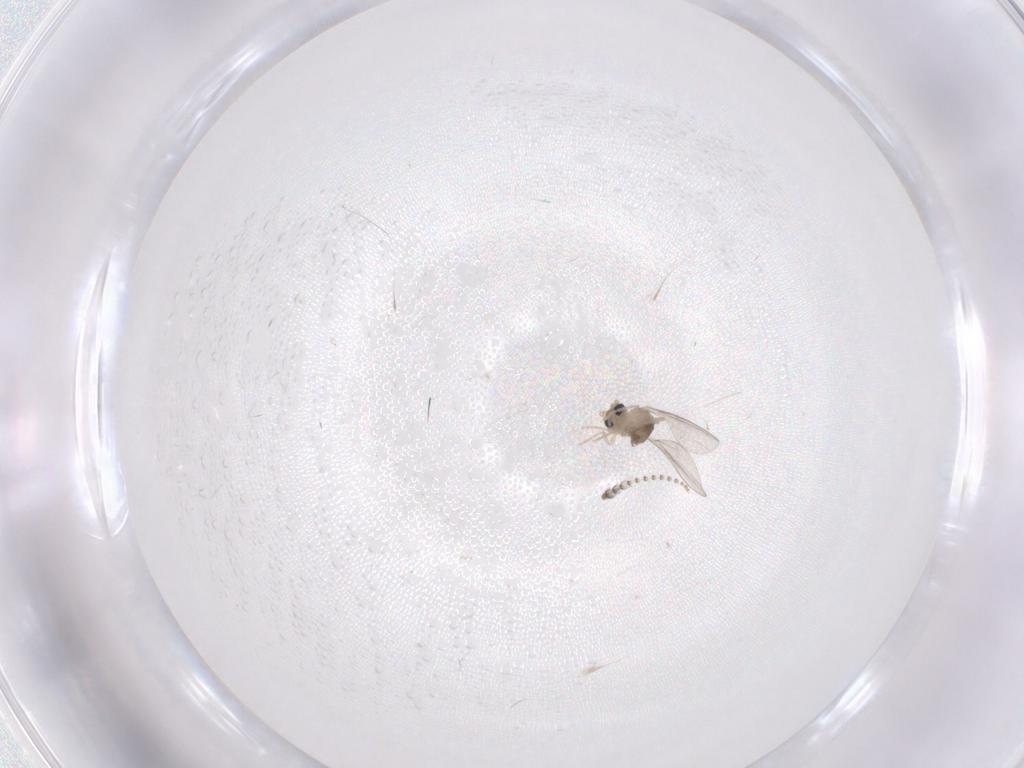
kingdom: Animalia
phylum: Arthropoda
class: Insecta
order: Diptera
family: Cecidomyiidae
